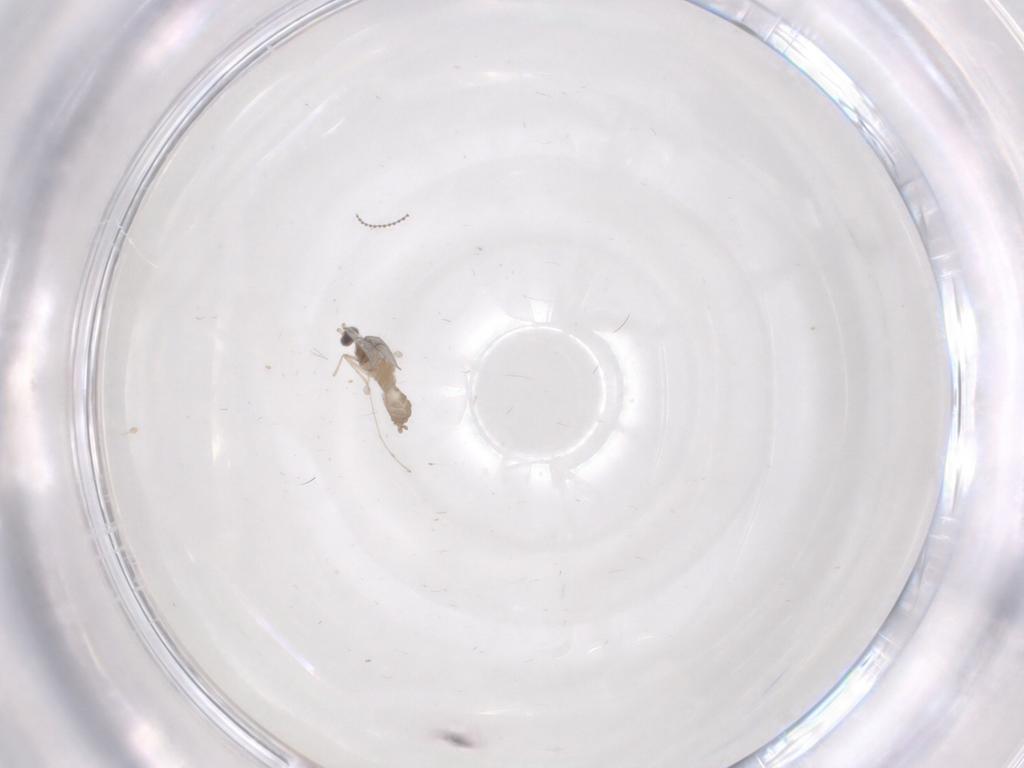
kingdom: Animalia
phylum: Arthropoda
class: Insecta
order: Diptera
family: Cecidomyiidae
